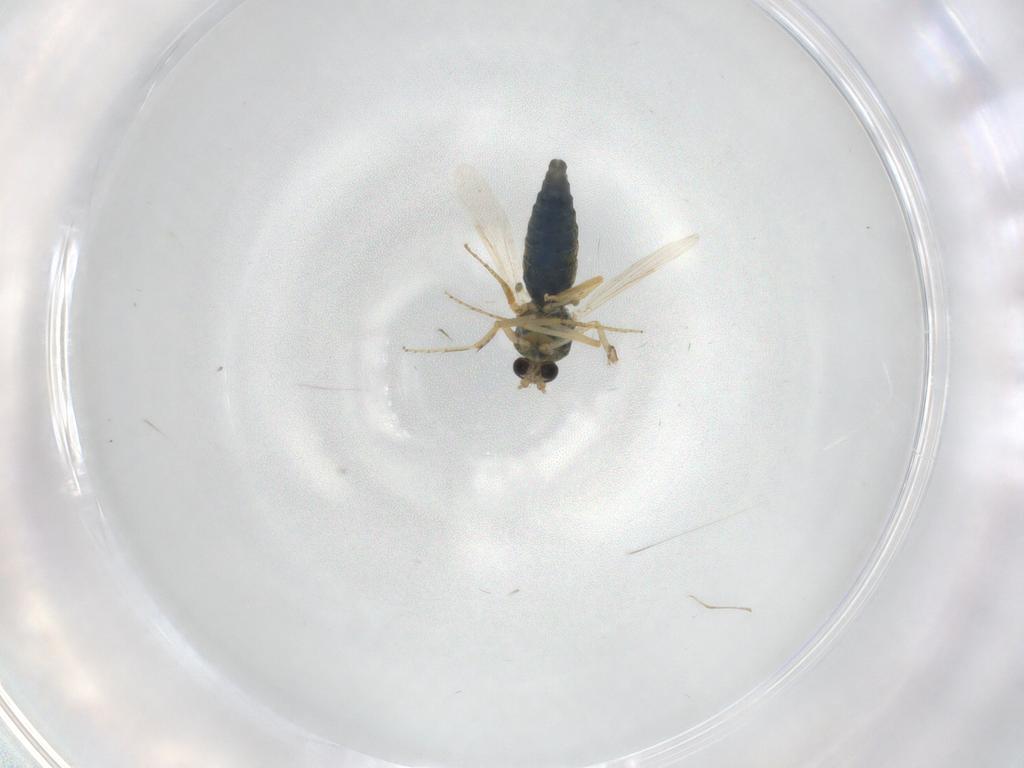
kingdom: Animalia
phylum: Arthropoda
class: Insecta
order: Diptera
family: Ceratopogonidae
